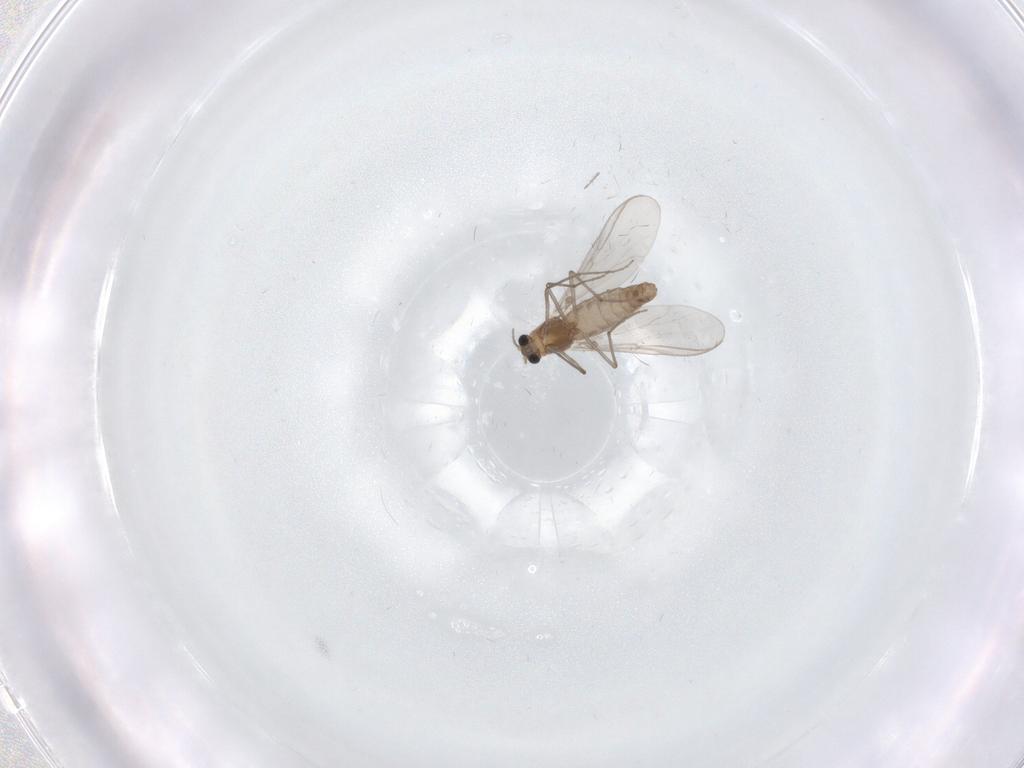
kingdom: Animalia
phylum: Arthropoda
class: Insecta
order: Diptera
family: Chironomidae
